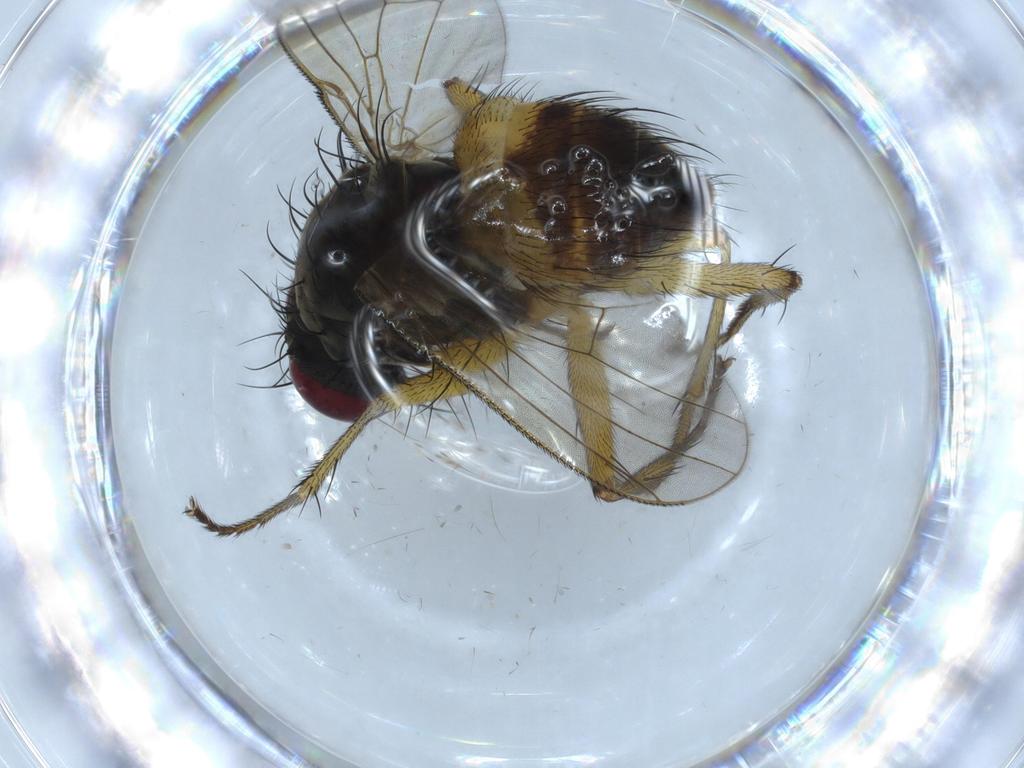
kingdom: Animalia
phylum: Arthropoda
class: Insecta
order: Diptera
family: Muscidae
